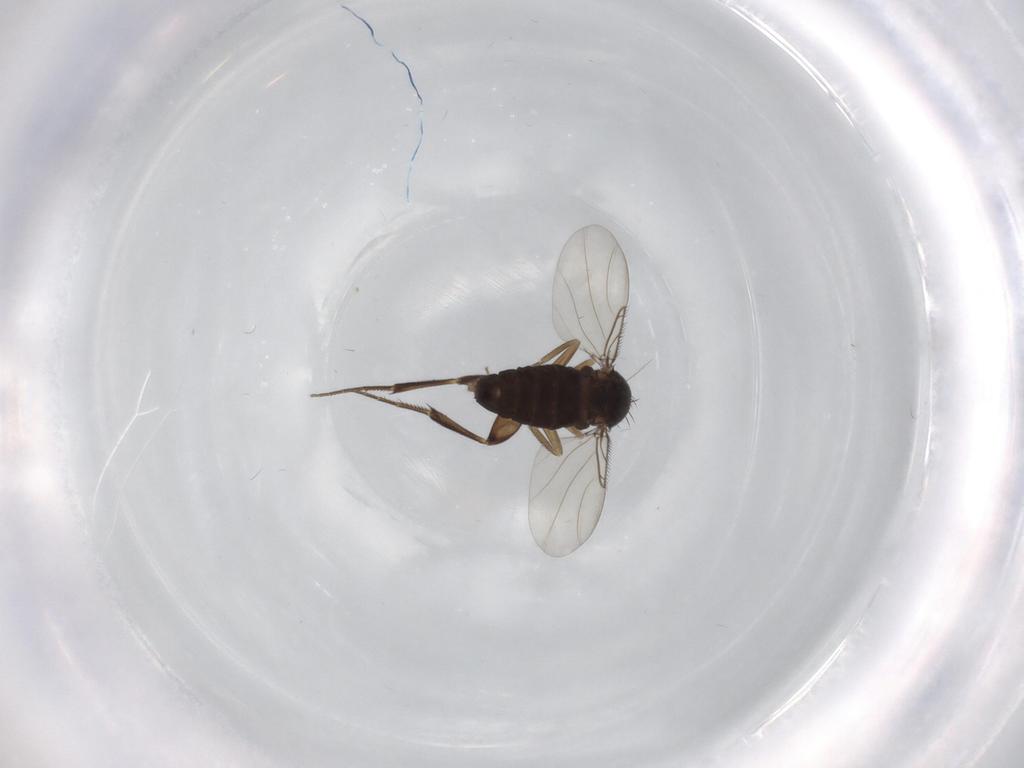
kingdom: Animalia
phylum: Arthropoda
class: Insecta
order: Diptera
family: Phoridae
